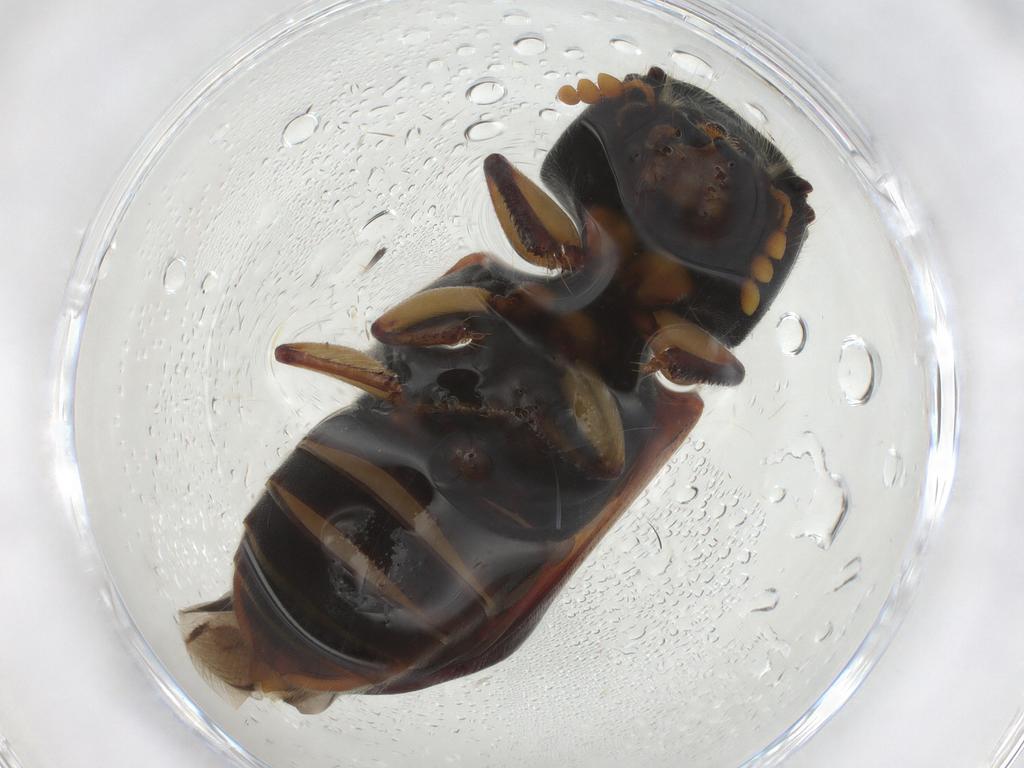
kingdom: Animalia
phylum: Arthropoda
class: Insecta
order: Coleoptera
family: Bostrichidae
